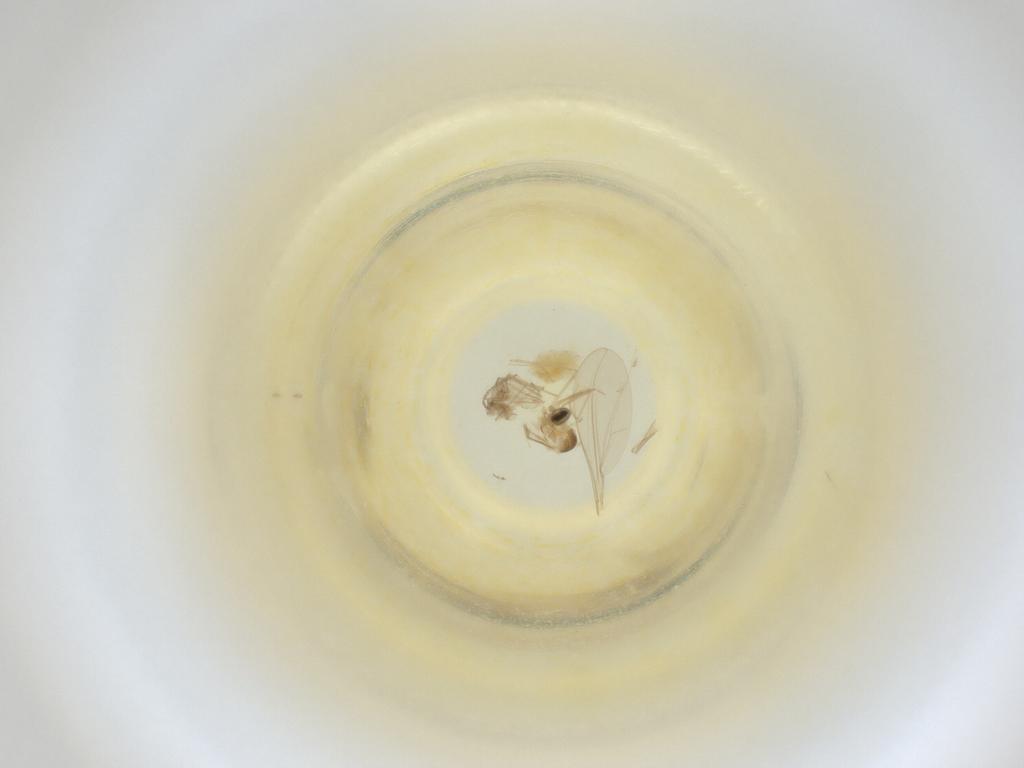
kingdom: Animalia
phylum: Arthropoda
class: Insecta
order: Diptera
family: Cecidomyiidae
